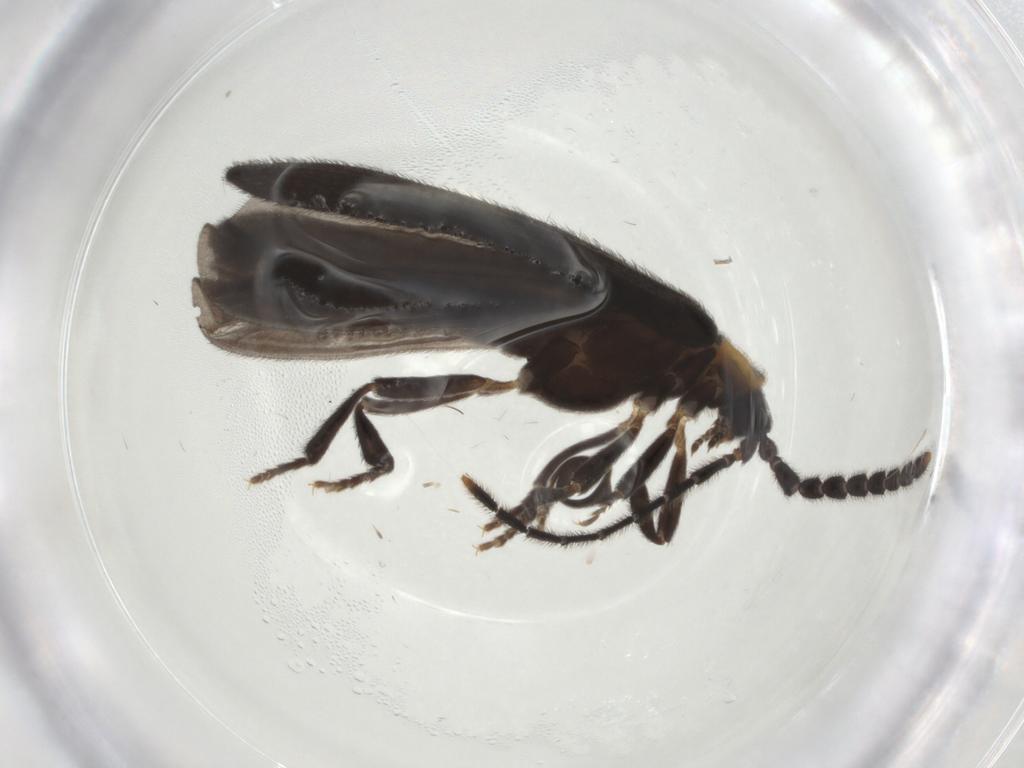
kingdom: Animalia
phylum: Arthropoda
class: Insecta
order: Coleoptera
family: Lycidae
